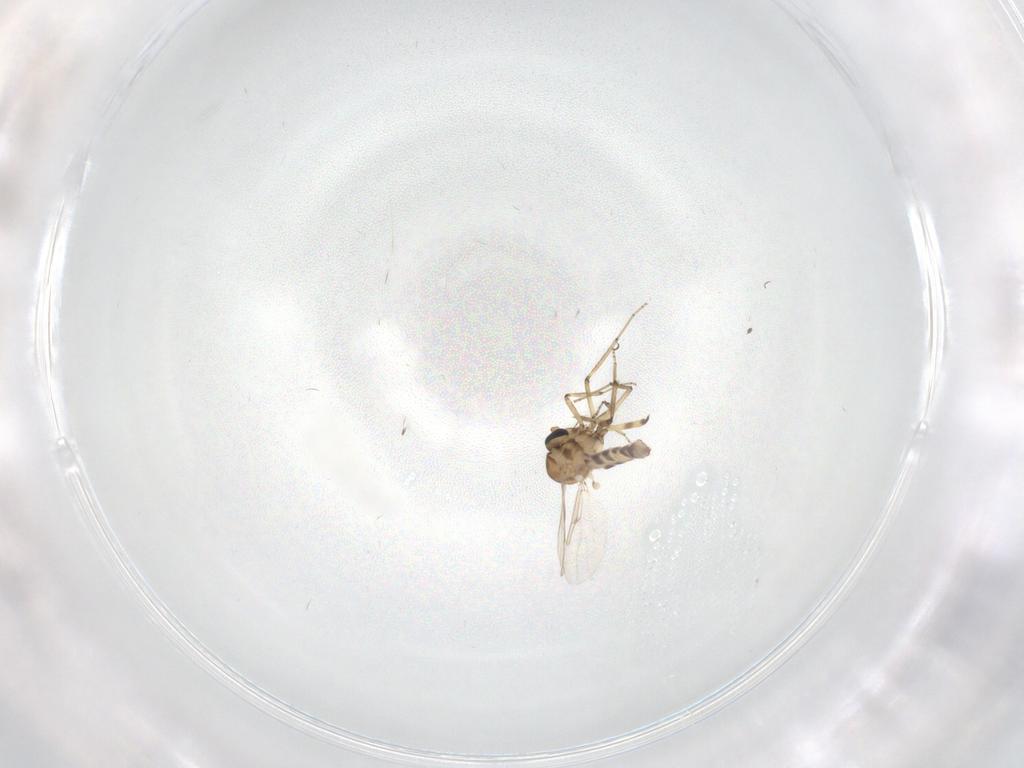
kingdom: Animalia
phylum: Arthropoda
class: Insecta
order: Diptera
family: Ceratopogonidae
